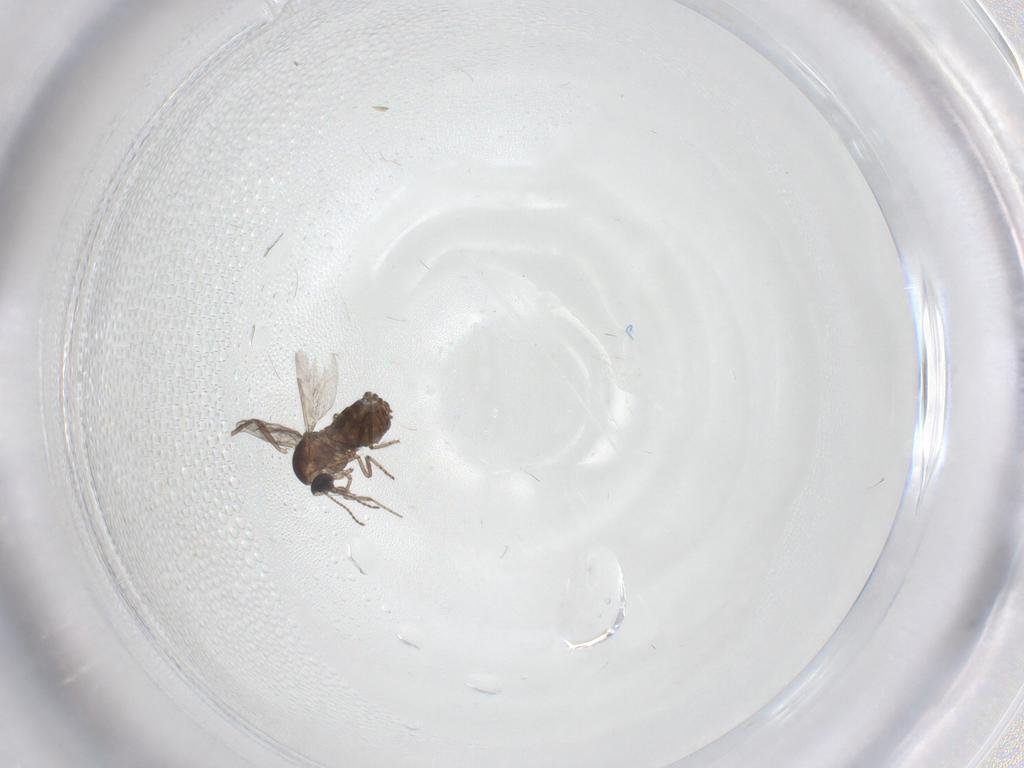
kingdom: Animalia
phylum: Arthropoda
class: Insecta
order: Diptera
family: Ceratopogonidae
